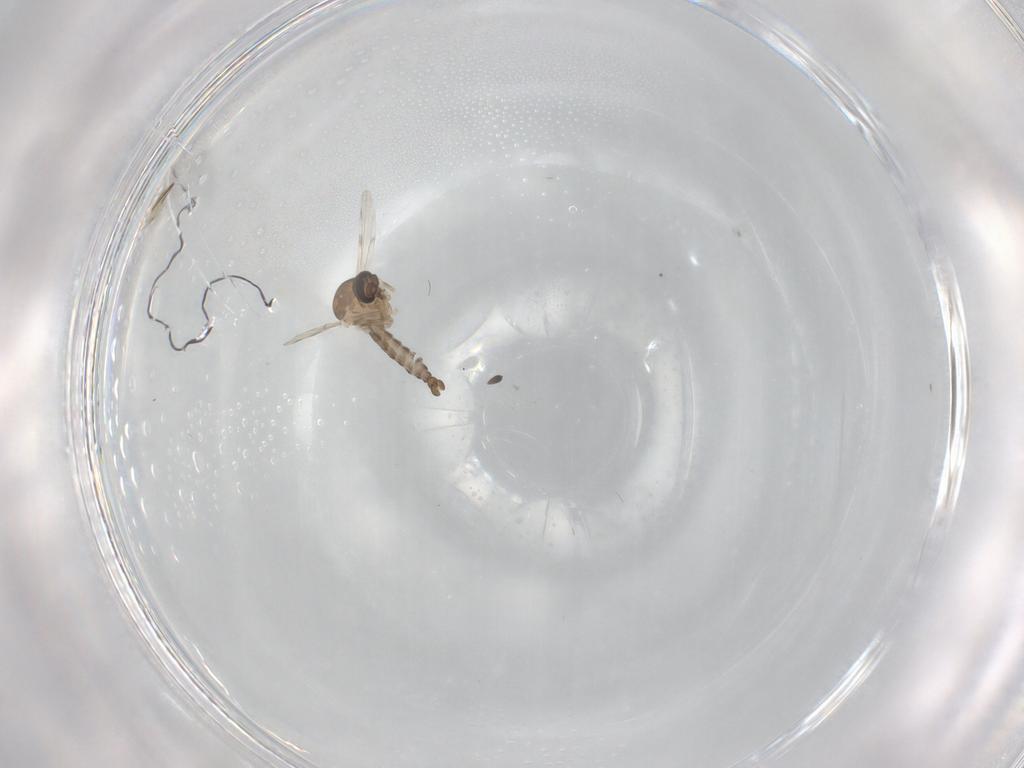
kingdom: Animalia
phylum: Arthropoda
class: Insecta
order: Diptera
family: Ceratopogonidae
